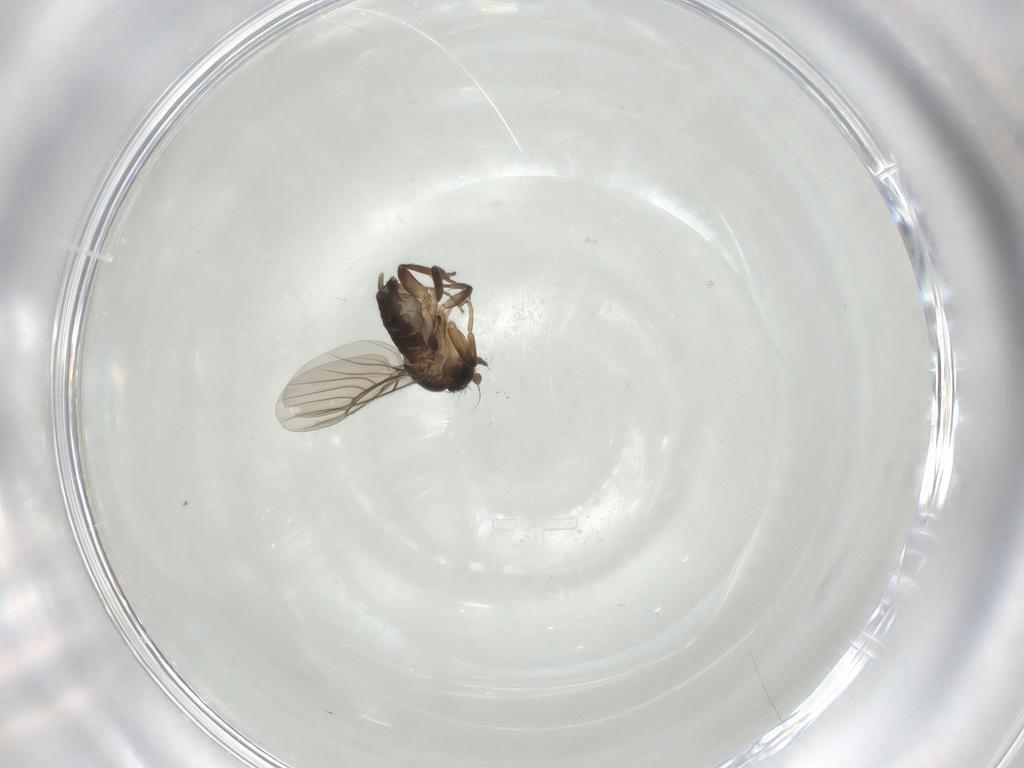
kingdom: Animalia
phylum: Arthropoda
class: Insecta
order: Diptera
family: Phoridae
